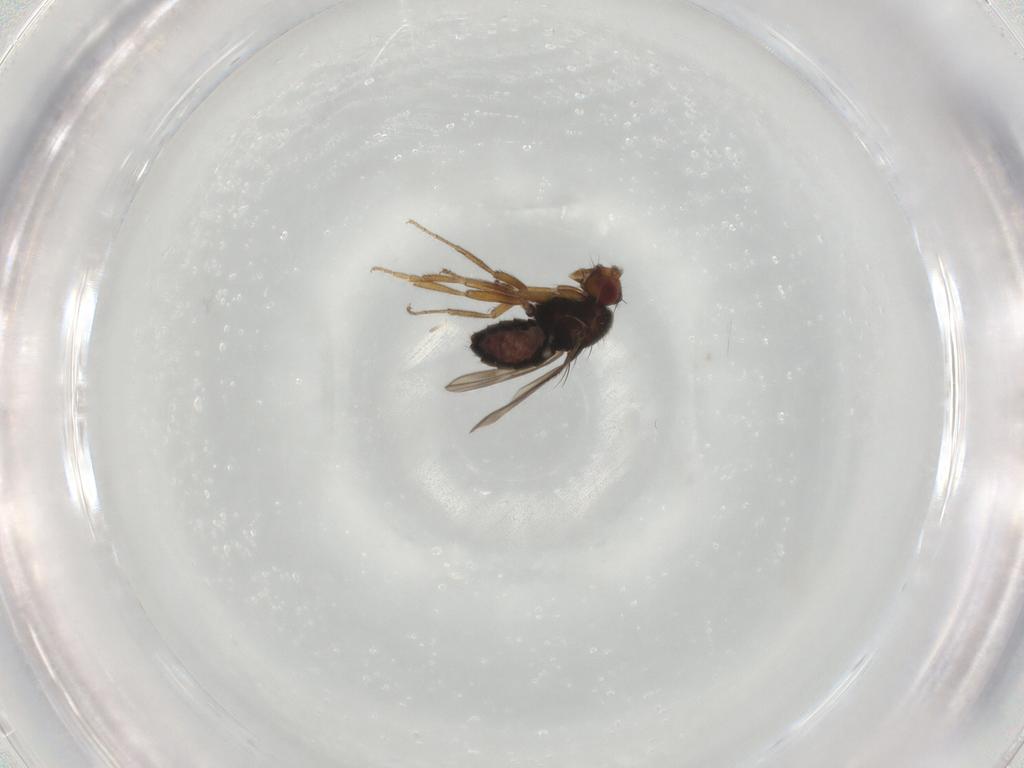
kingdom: Animalia
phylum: Arthropoda
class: Insecta
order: Diptera
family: Sphaeroceridae
